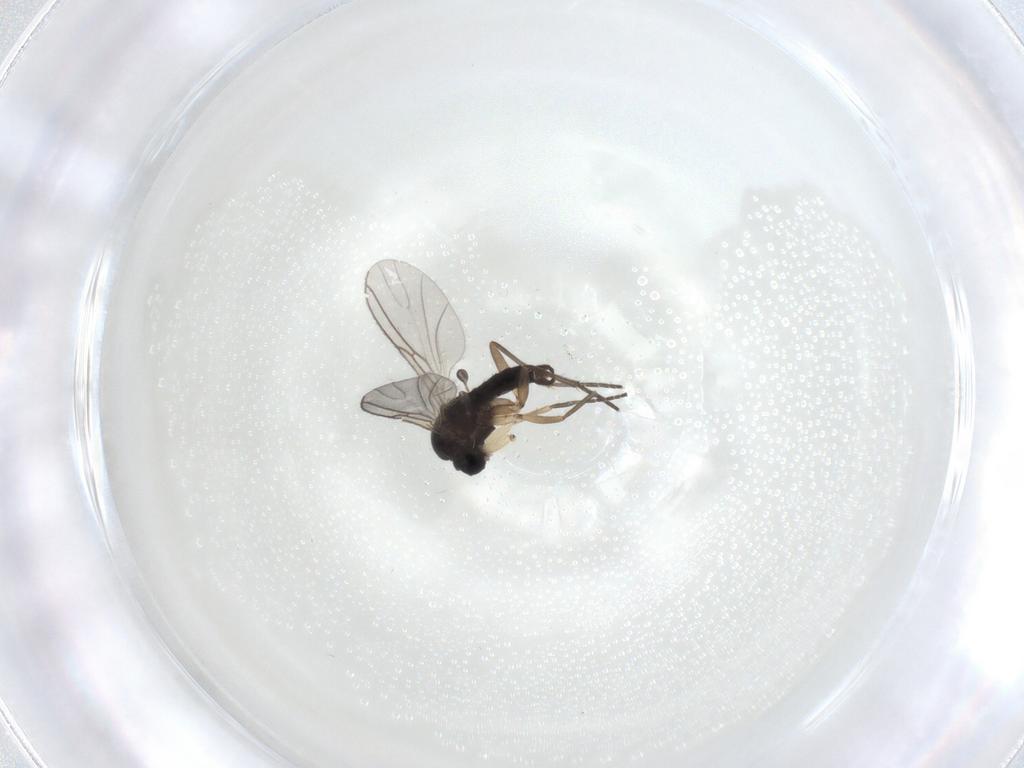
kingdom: Animalia
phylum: Arthropoda
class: Insecta
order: Diptera
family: Sciaridae
